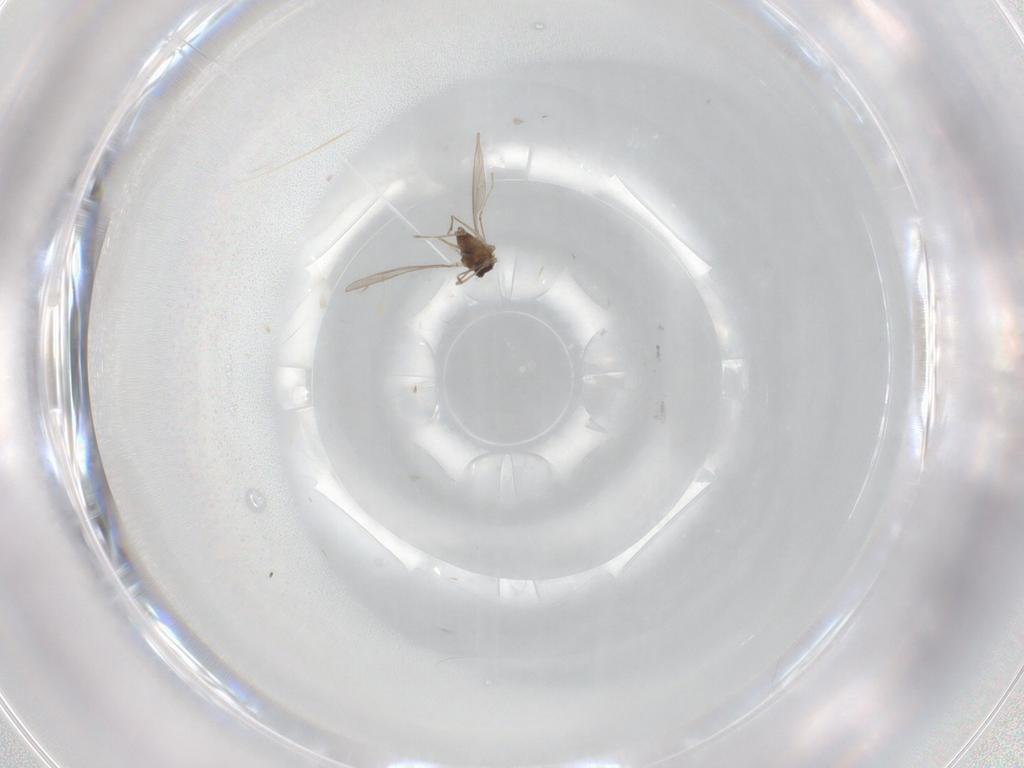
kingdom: Animalia
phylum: Arthropoda
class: Insecta
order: Diptera
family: Cecidomyiidae
